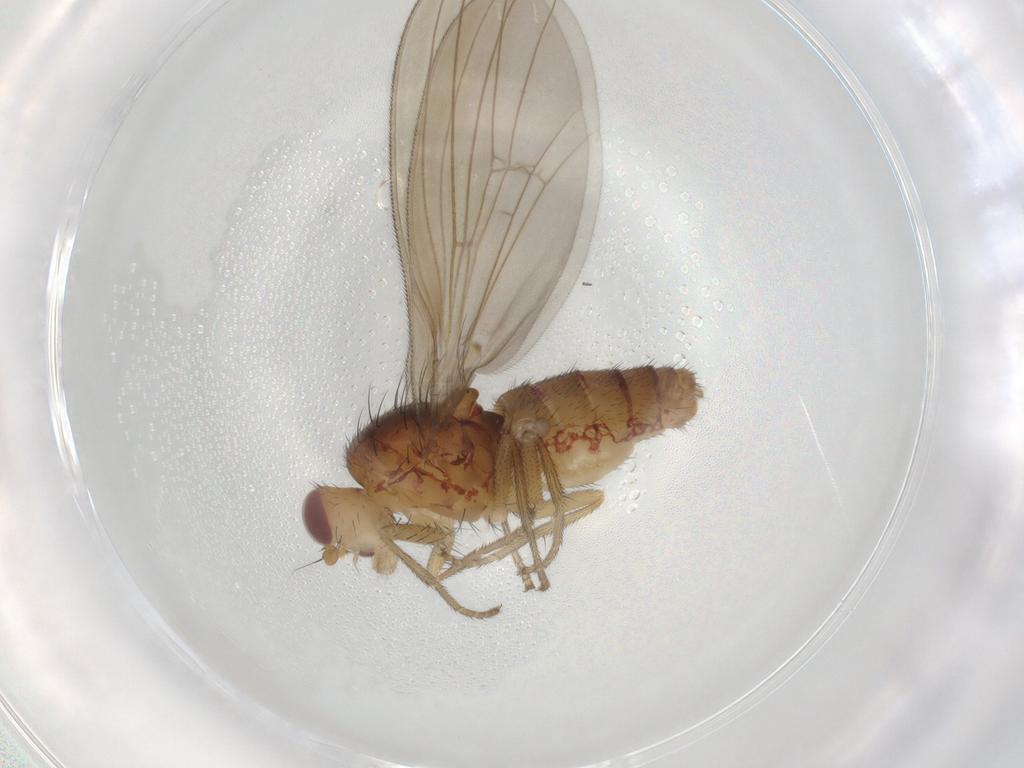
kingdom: Animalia
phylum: Arthropoda
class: Insecta
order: Diptera
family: Natalimyzidae
